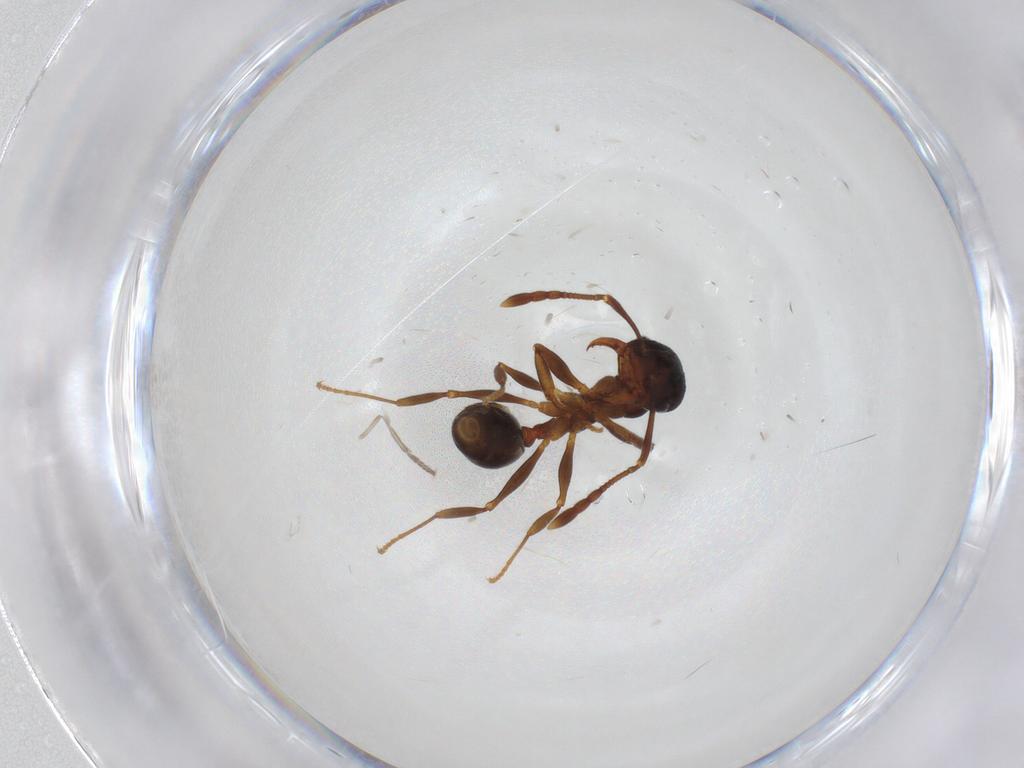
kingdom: Animalia
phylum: Arthropoda
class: Insecta
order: Hymenoptera
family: Formicidae
